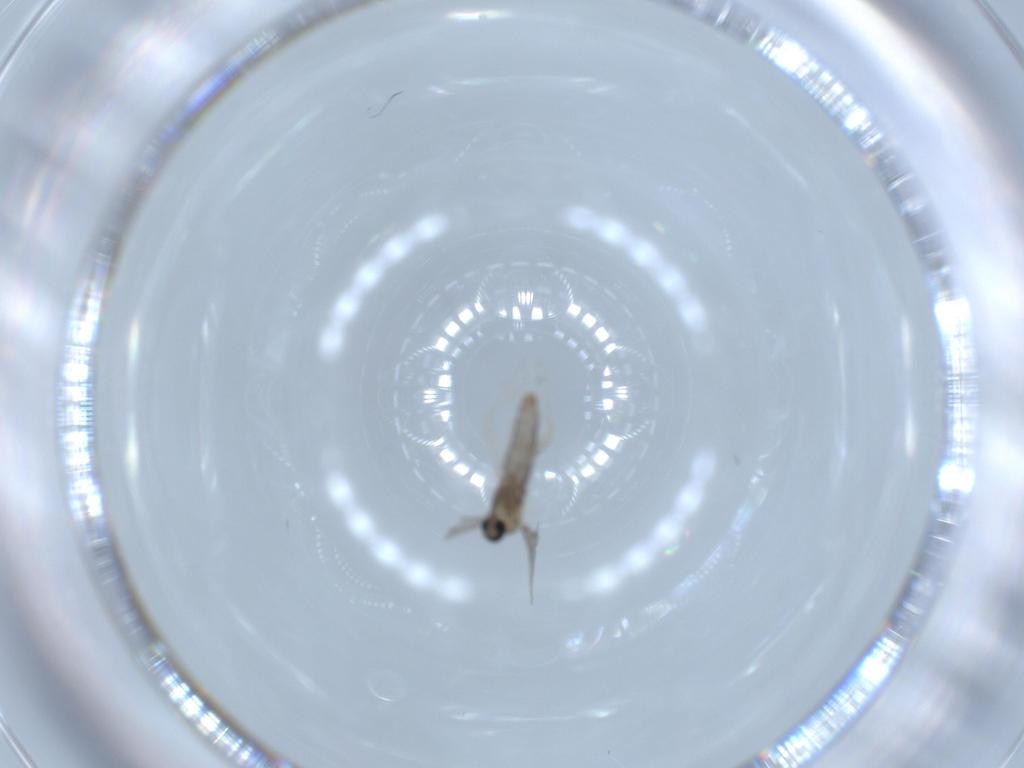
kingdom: Animalia
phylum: Arthropoda
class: Insecta
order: Diptera
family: Cecidomyiidae
